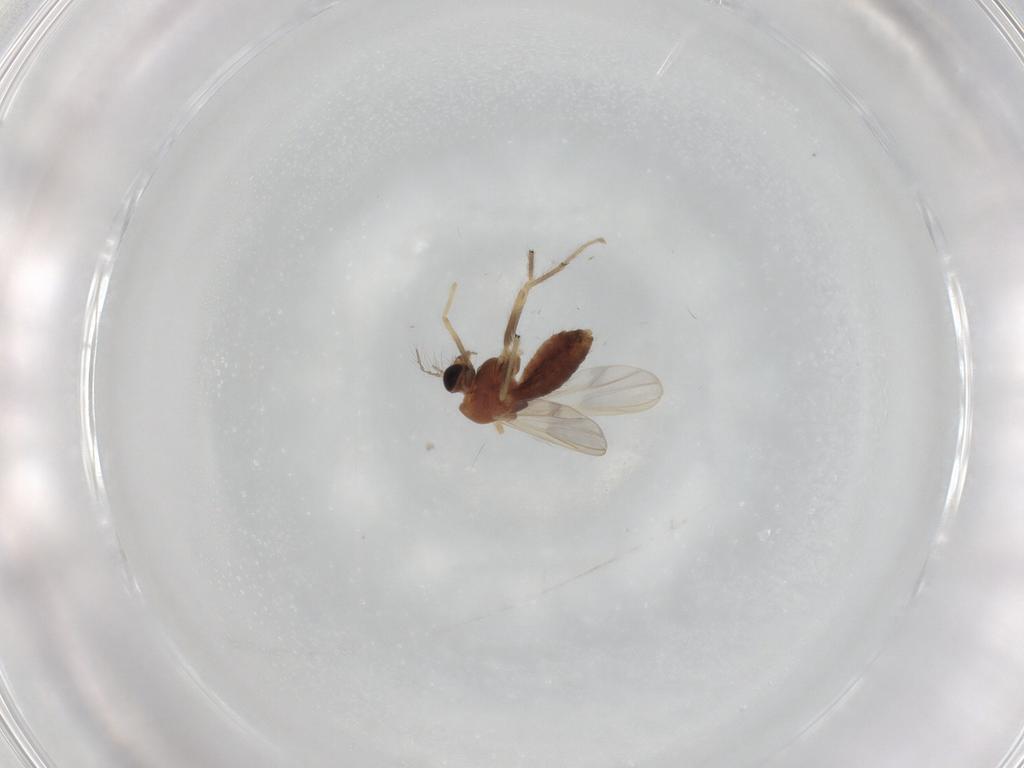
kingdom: Animalia
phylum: Arthropoda
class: Insecta
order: Diptera
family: Chironomidae
